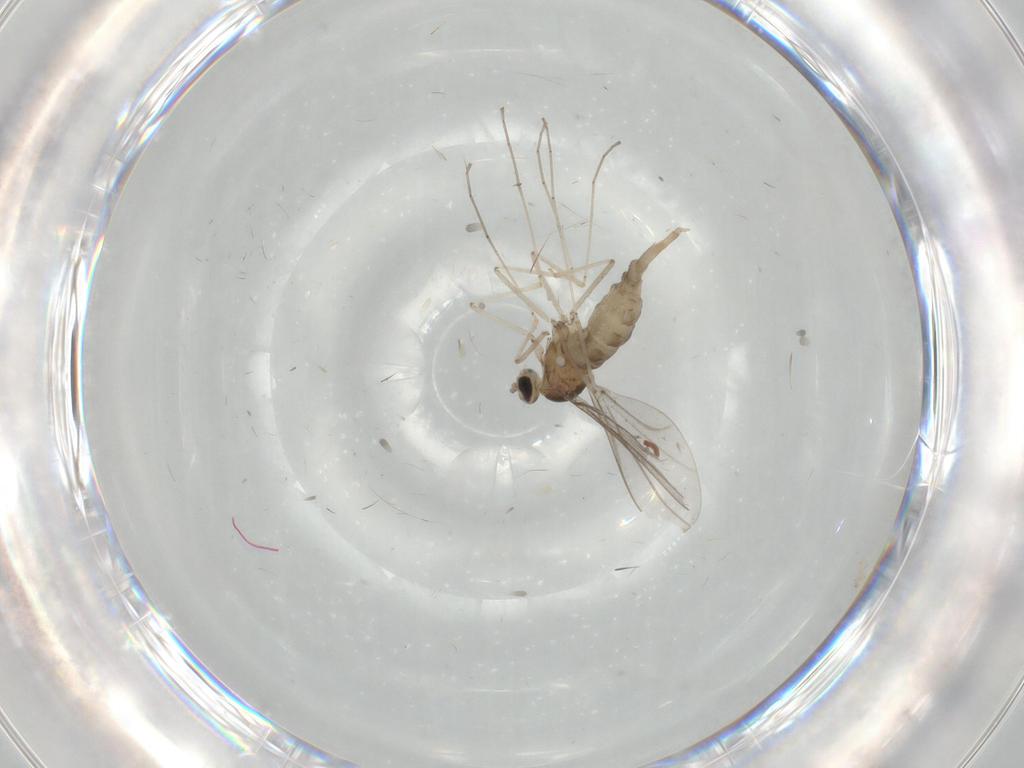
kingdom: Animalia
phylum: Arthropoda
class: Insecta
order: Diptera
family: Cecidomyiidae
